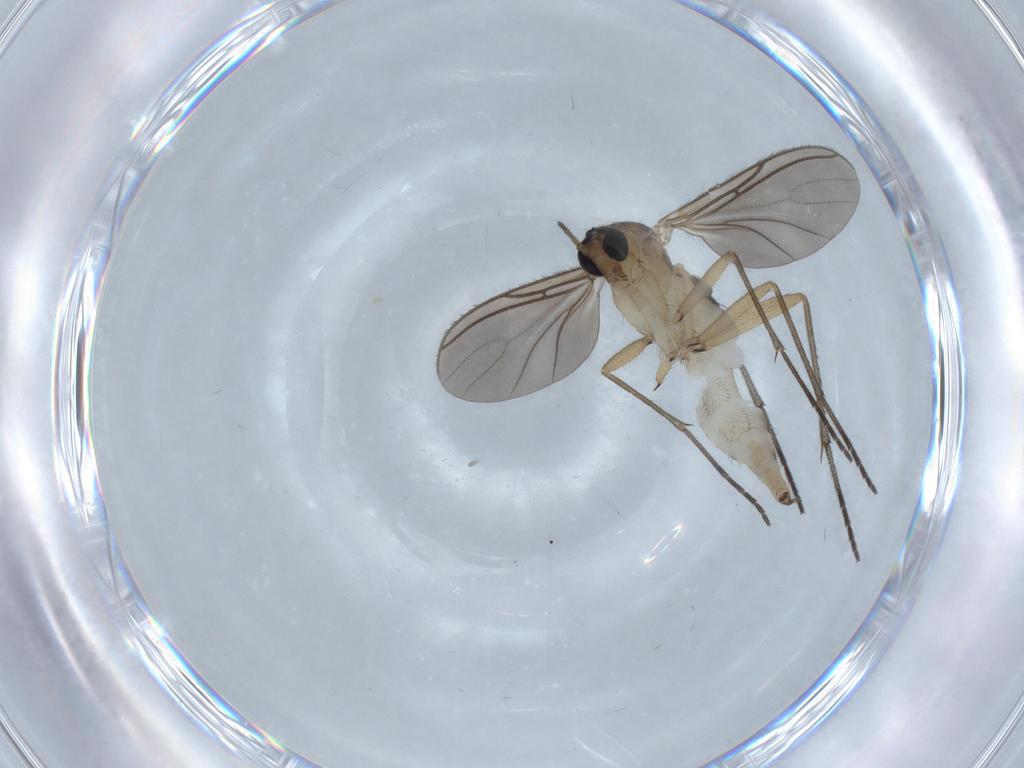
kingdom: Animalia
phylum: Arthropoda
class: Insecta
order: Diptera
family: Sciaridae
